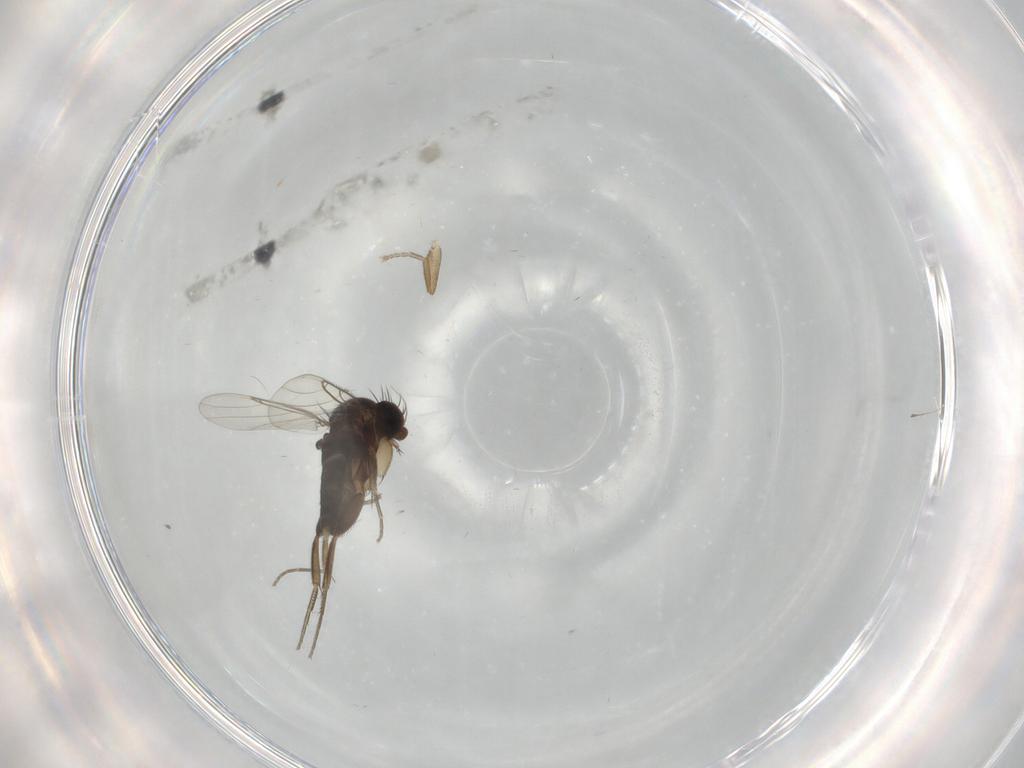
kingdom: Animalia
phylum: Arthropoda
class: Insecta
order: Diptera
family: Phoridae
